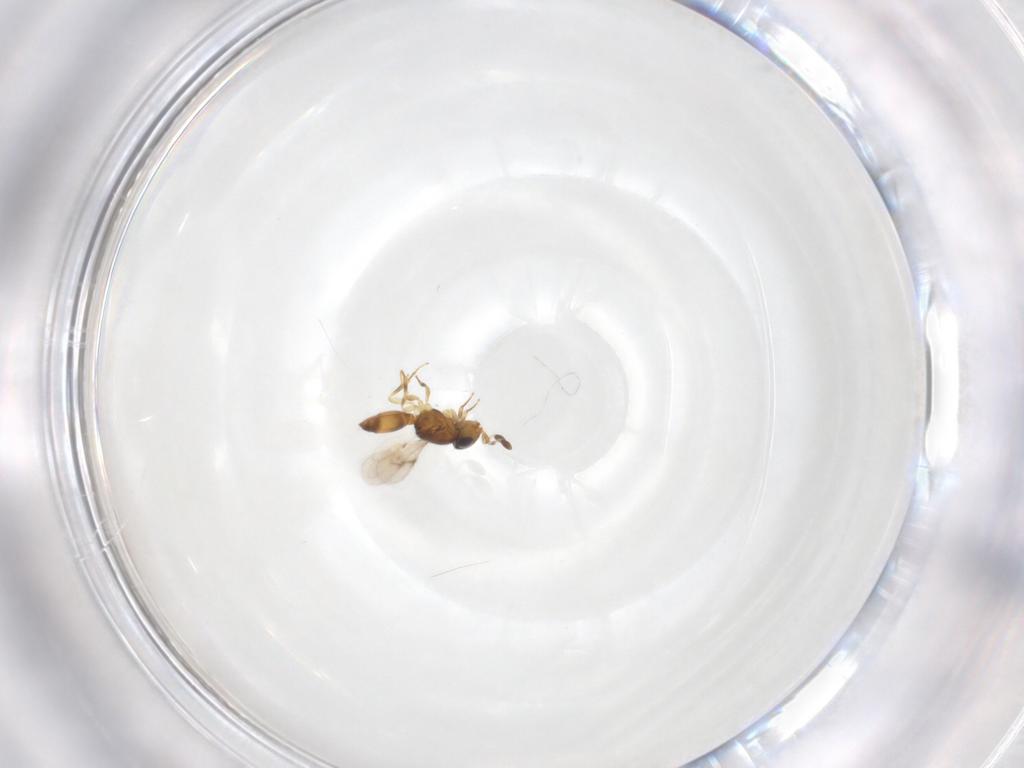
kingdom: Animalia
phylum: Arthropoda
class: Insecta
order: Hymenoptera
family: Scelionidae
